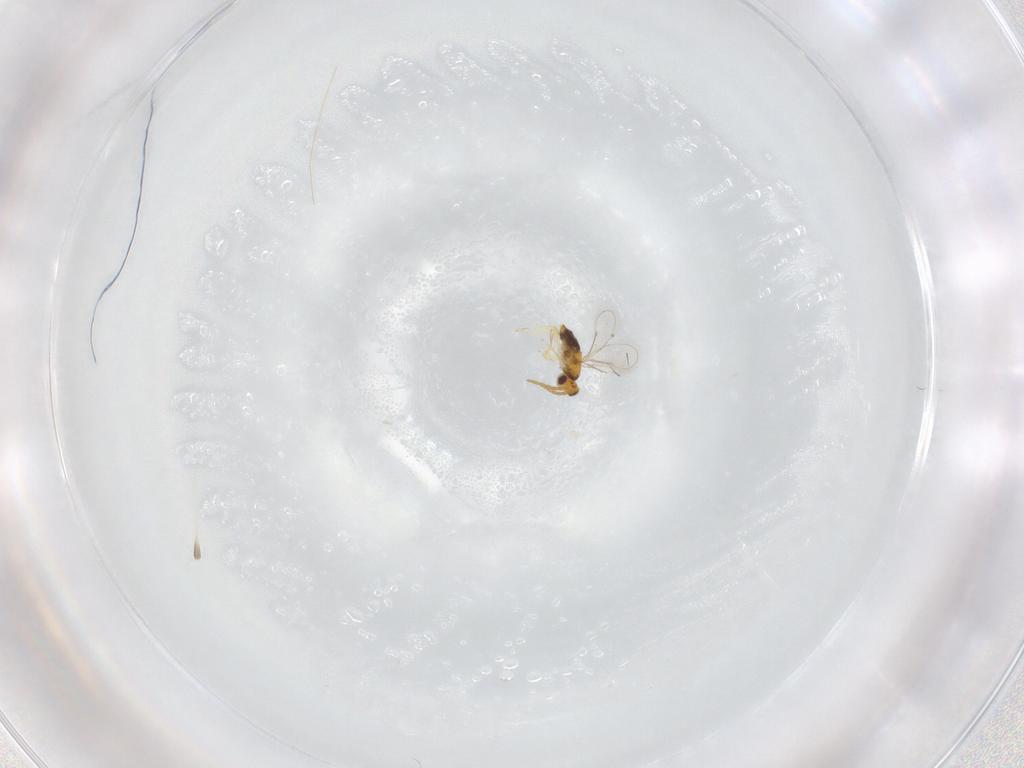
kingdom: Animalia
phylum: Arthropoda
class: Insecta
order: Hymenoptera
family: Aphelinidae
